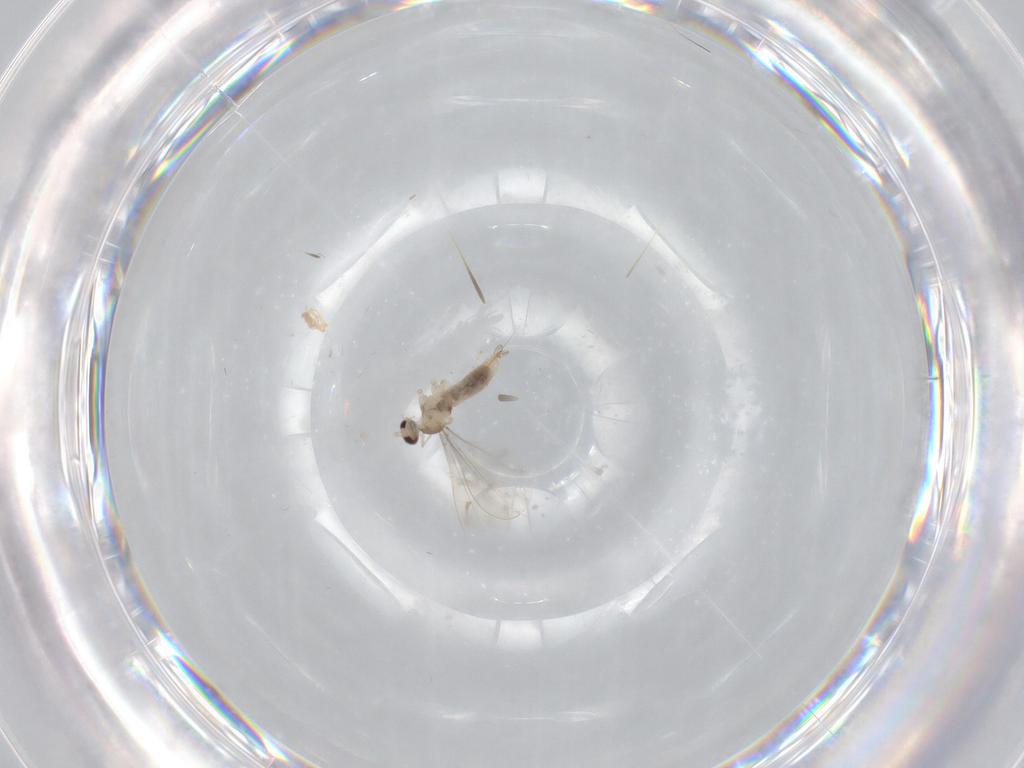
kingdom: Animalia
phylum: Arthropoda
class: Insecta
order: Diptera
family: Cecidomyiidae
